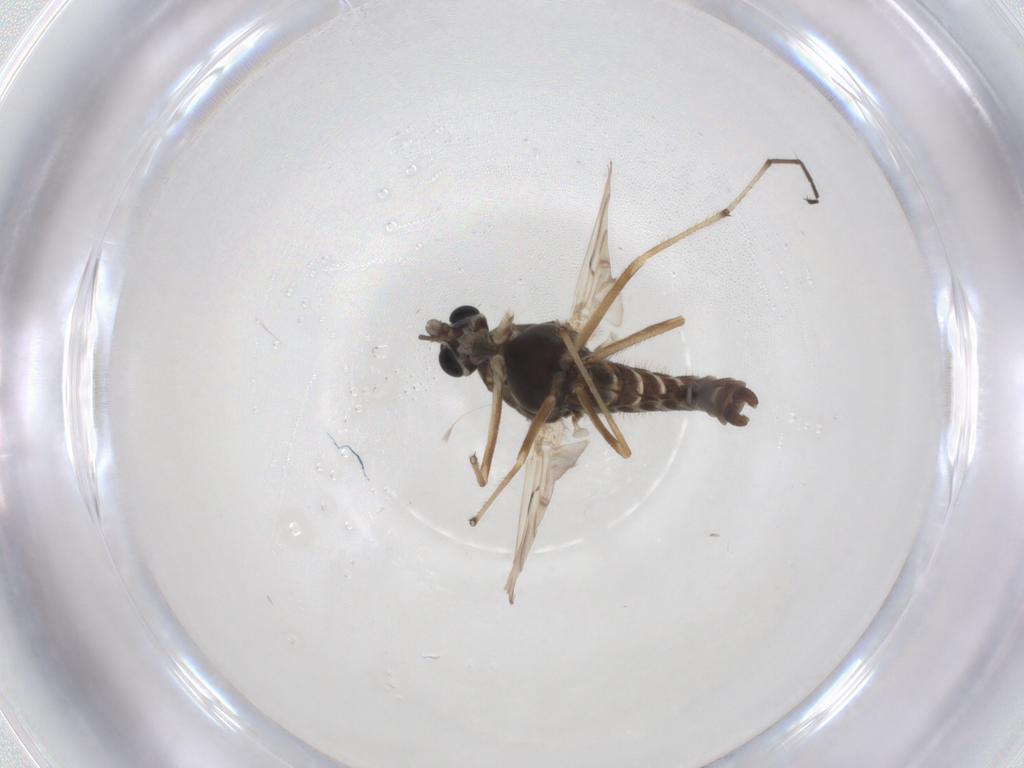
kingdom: Animalia
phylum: Arthropoda
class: Insecta
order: Diptera
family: Chironomidae
